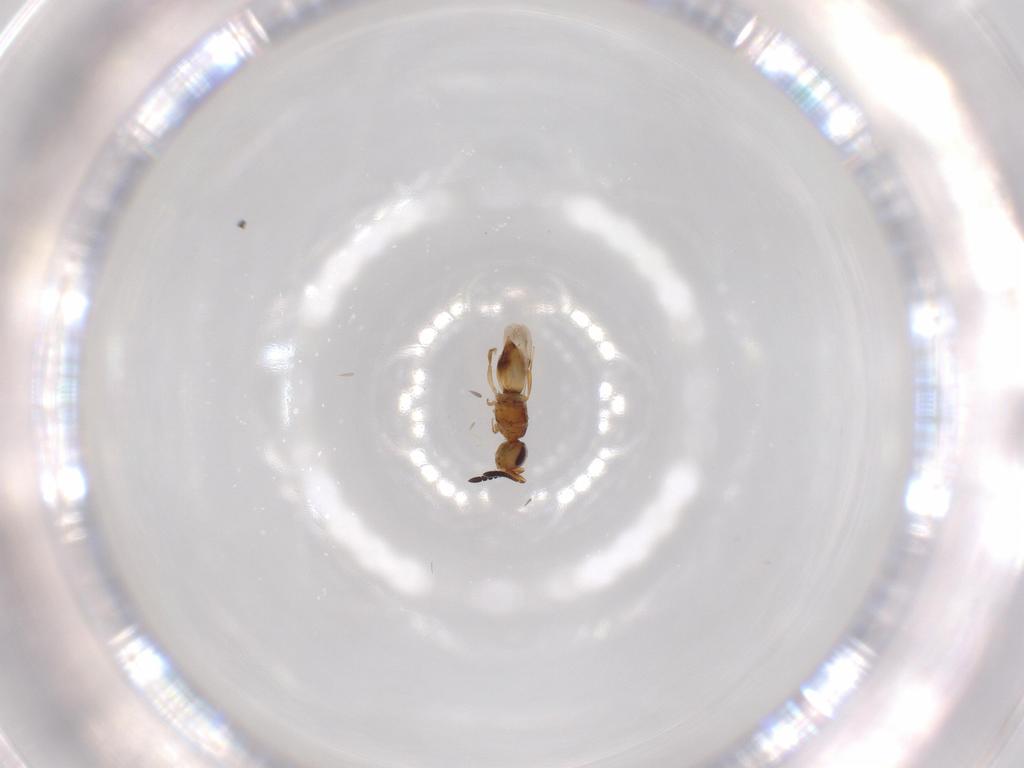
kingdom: Animalia
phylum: Arthropoda
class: Insecta
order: Hymenoptera
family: Ceraphronidae
